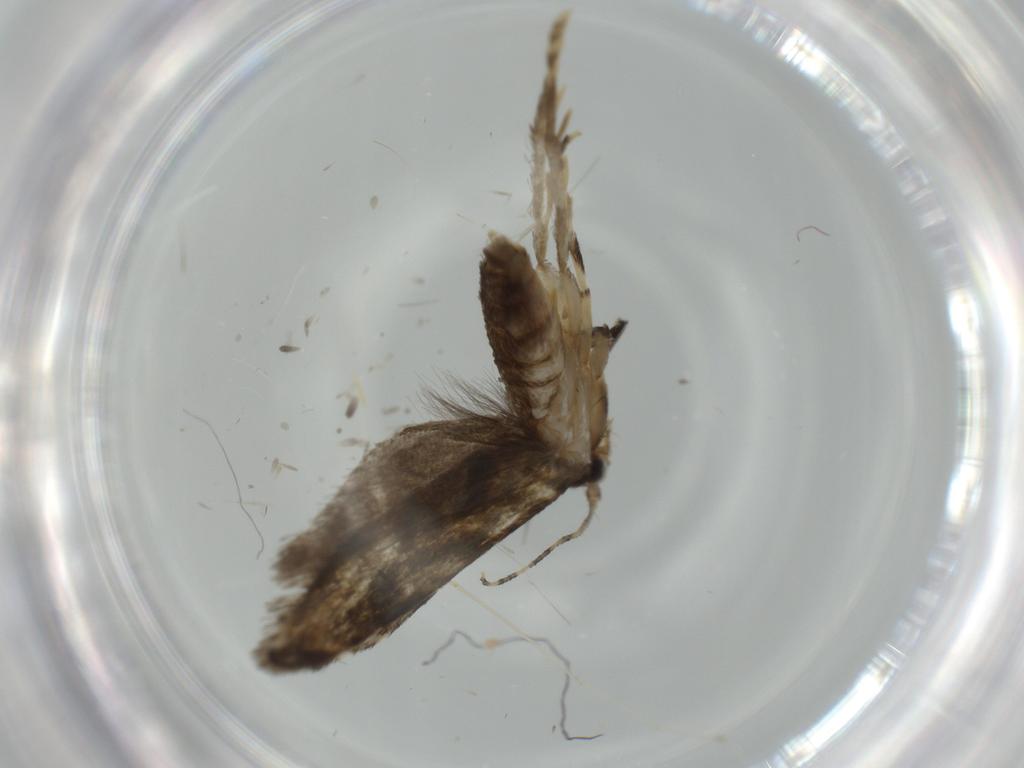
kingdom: Animalia
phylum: Arthropoda
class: Insecta
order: Lepidoptera
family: Tineidae
